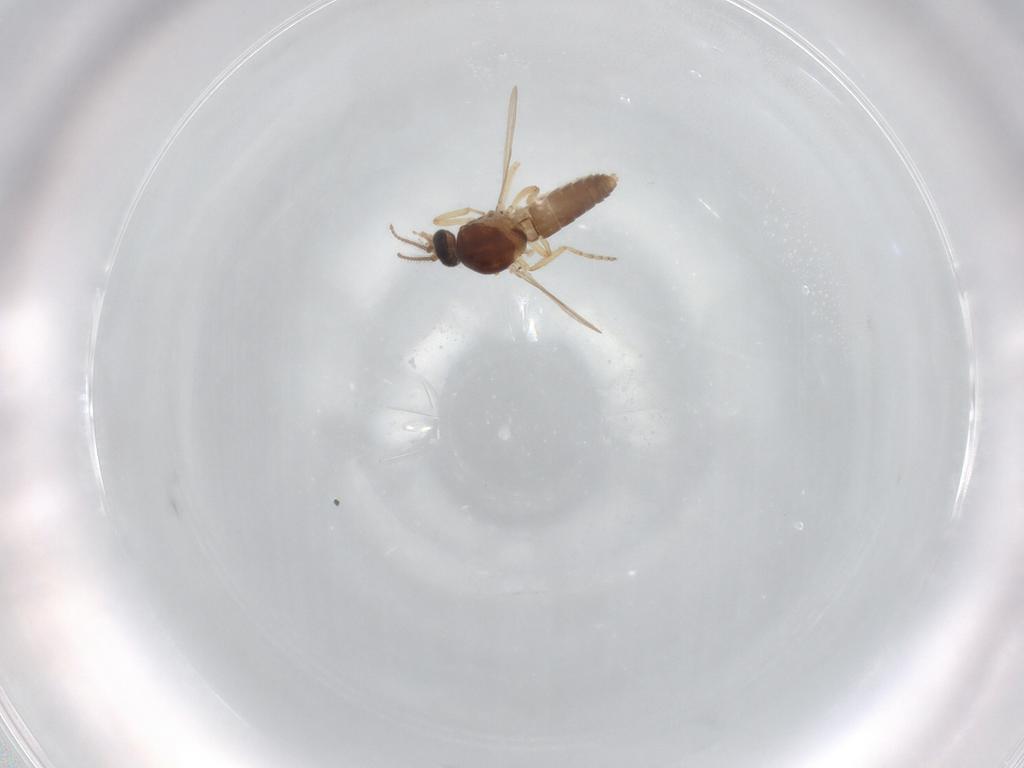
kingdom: Animalia
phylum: Arthropoda
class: Insecta
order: Diptera
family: Ceratopogonidae
